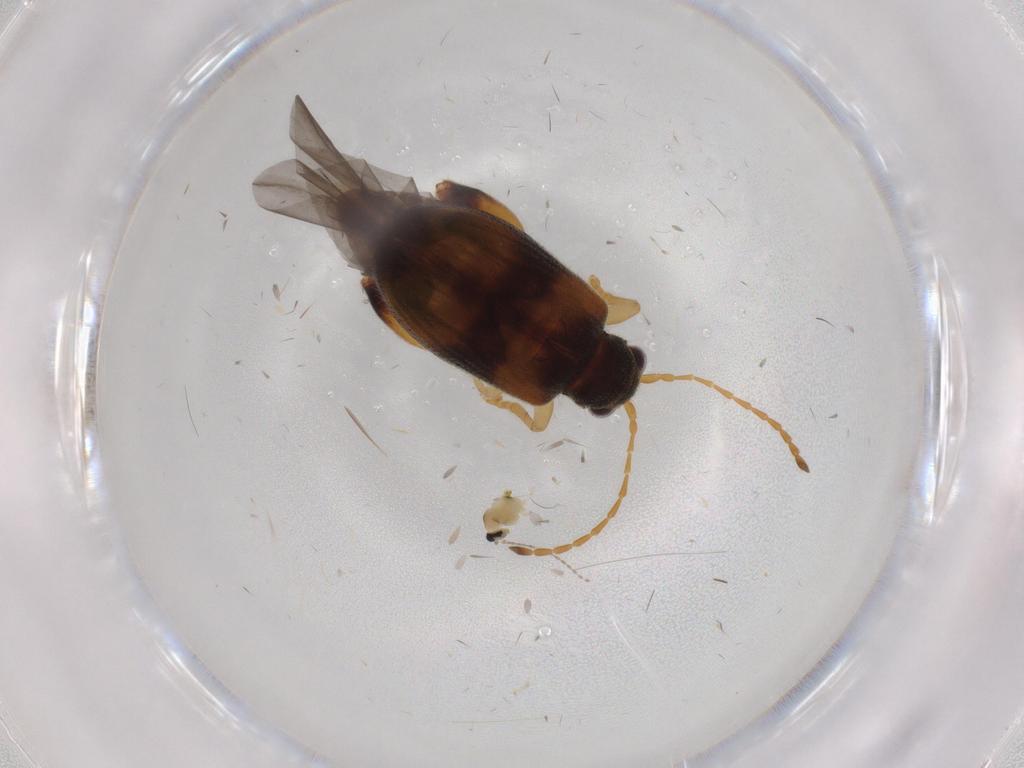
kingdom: Animalia
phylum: Arthropoda
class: Insecta
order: Coleoptera
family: Chrysomelidae
